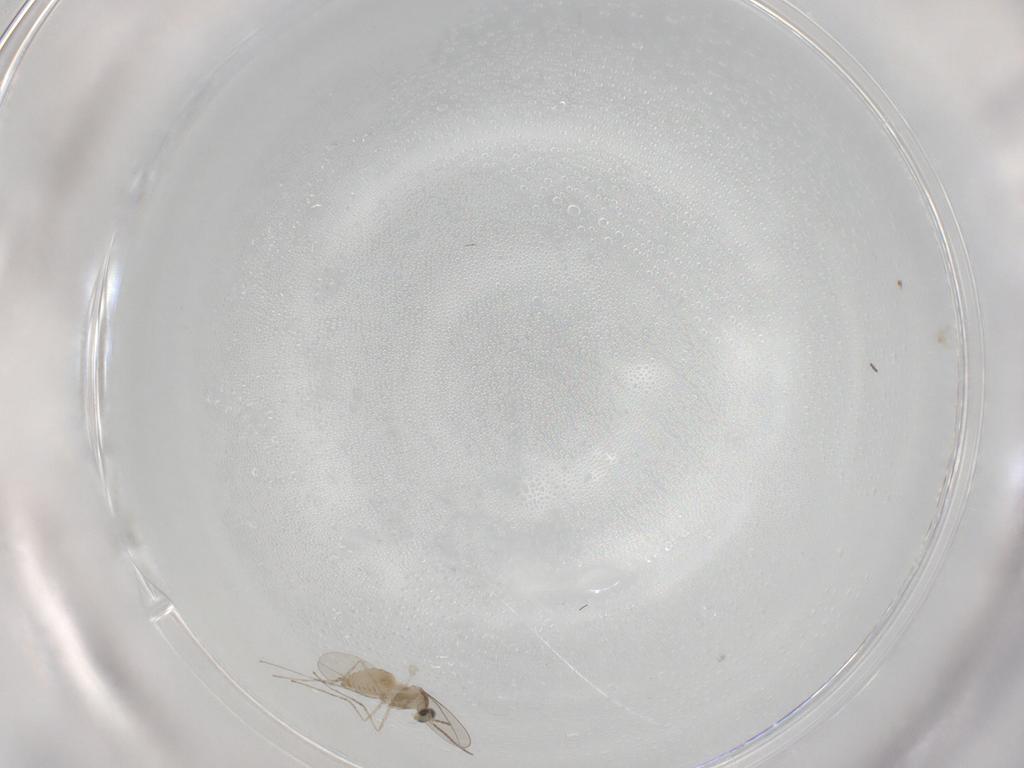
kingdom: Animalia
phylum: Arthropoda
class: Insecta
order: Diptera
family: Cecidomyiidae
